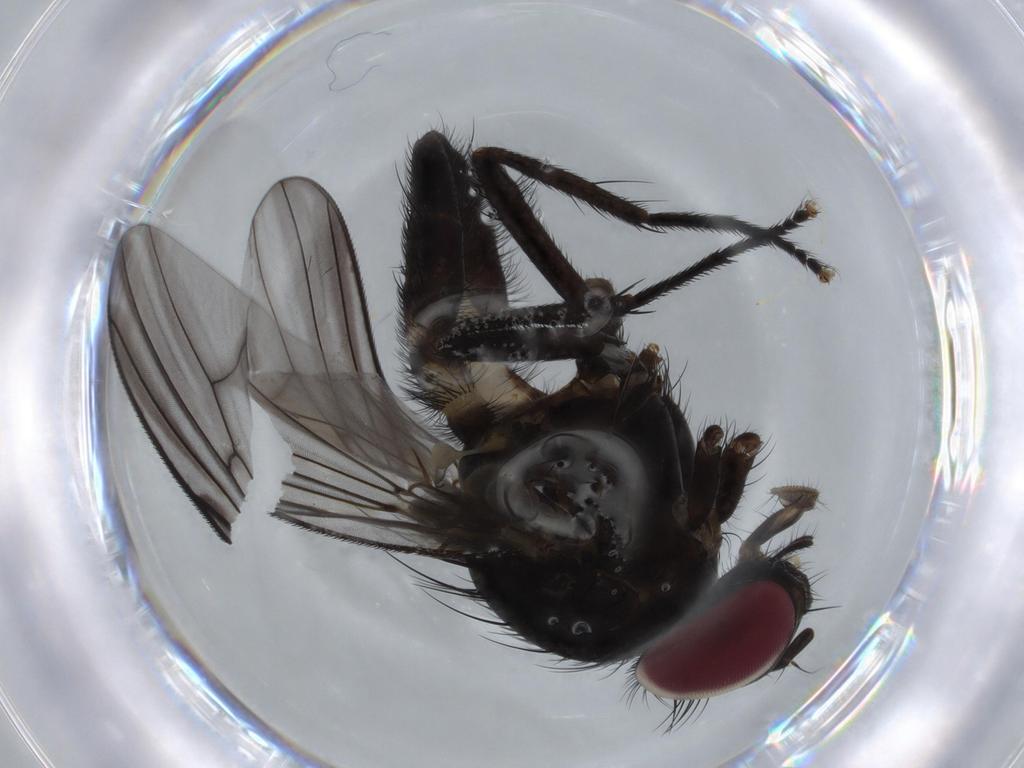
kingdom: Animalia
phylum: Arthropoda
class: Insecta
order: Diptera
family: Fannia
